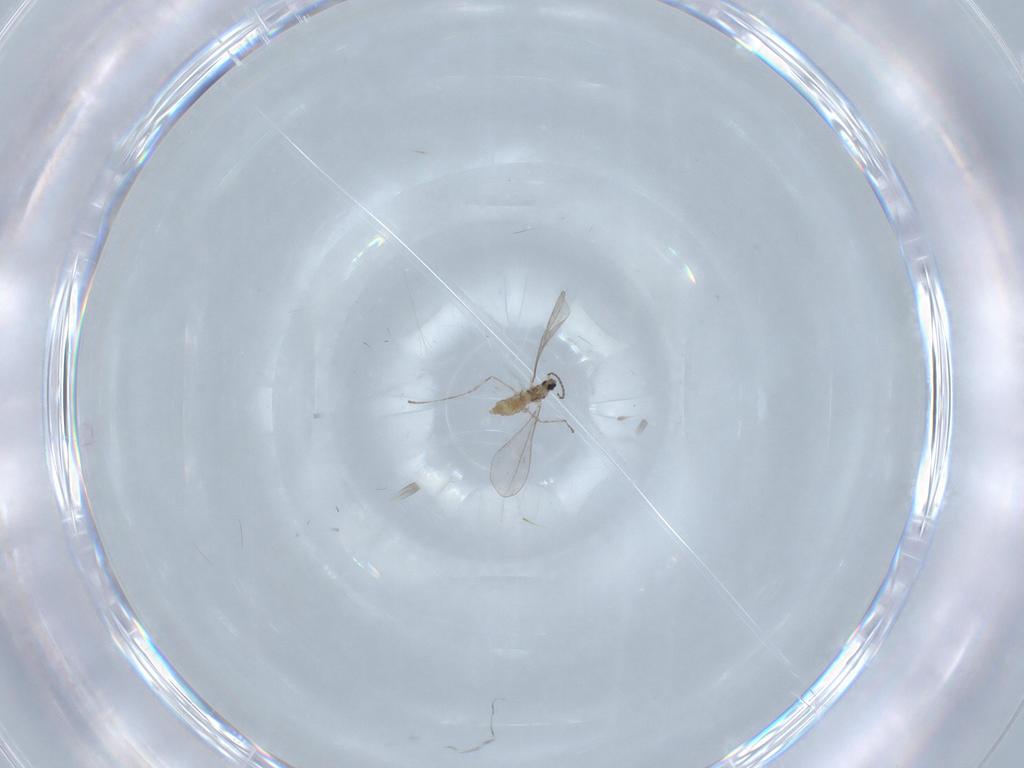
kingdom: Animalia
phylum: Arthropoda
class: Insecta
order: Diptera
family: Cecidomyiidae
